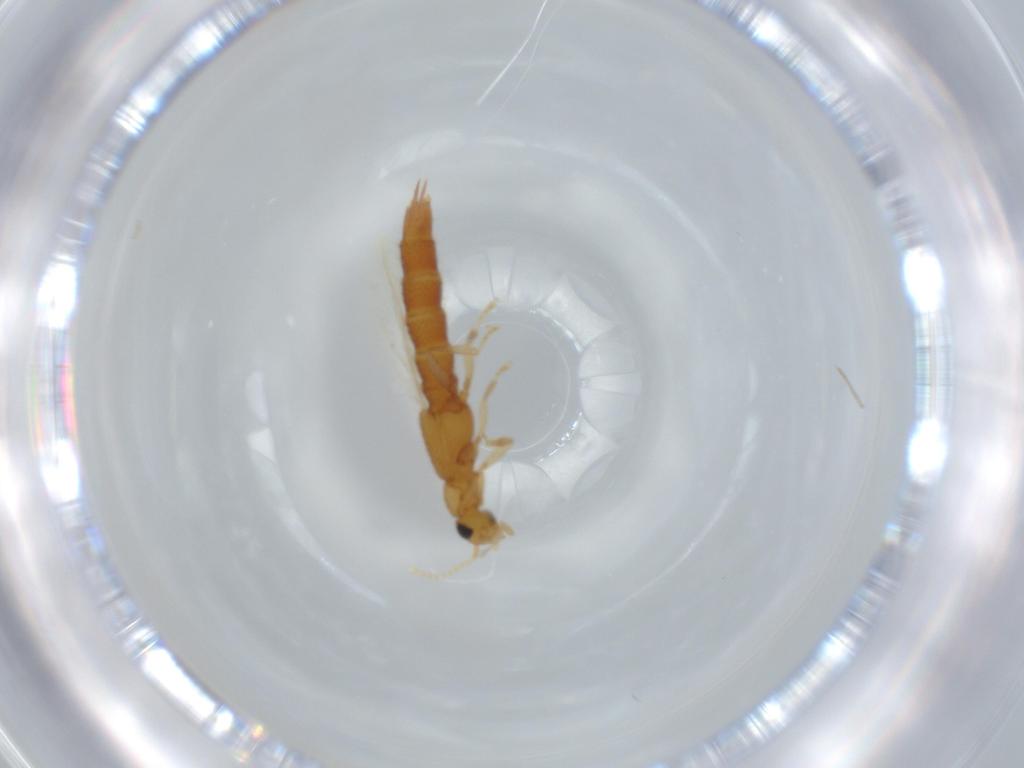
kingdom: Animalia
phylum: Arthropoda
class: Insecta
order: Coleoptera
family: Staphylinidae
